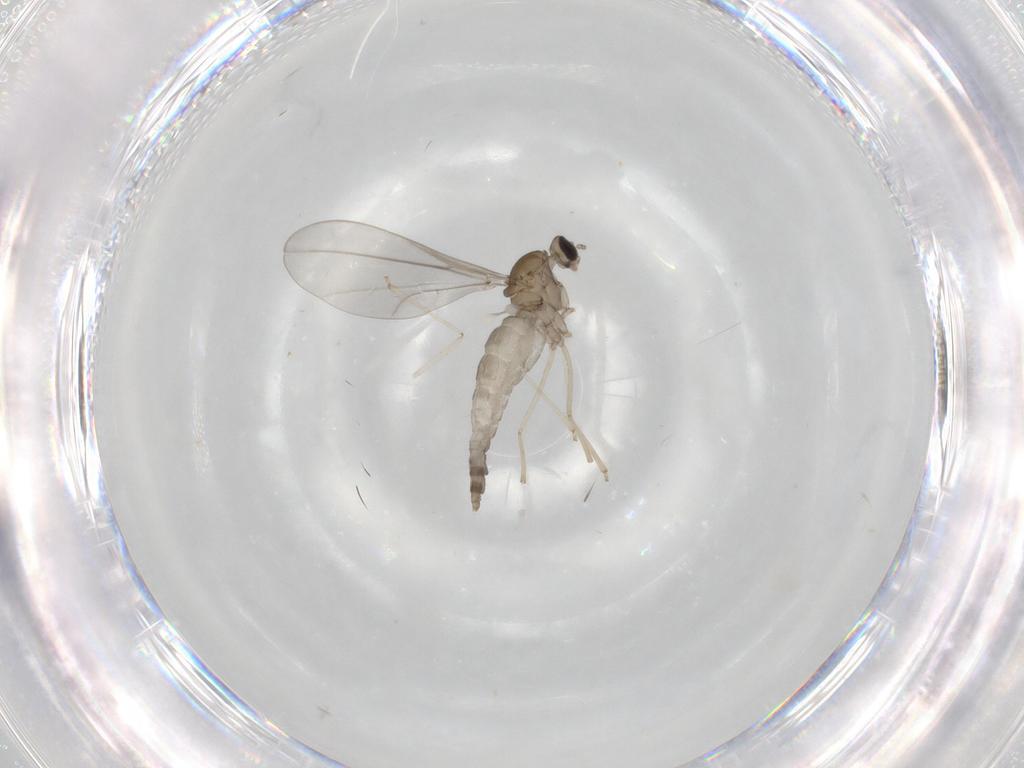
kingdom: Animalia
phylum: Arthropoda
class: Insecta
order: Diptera
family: Cecidomyiidae
